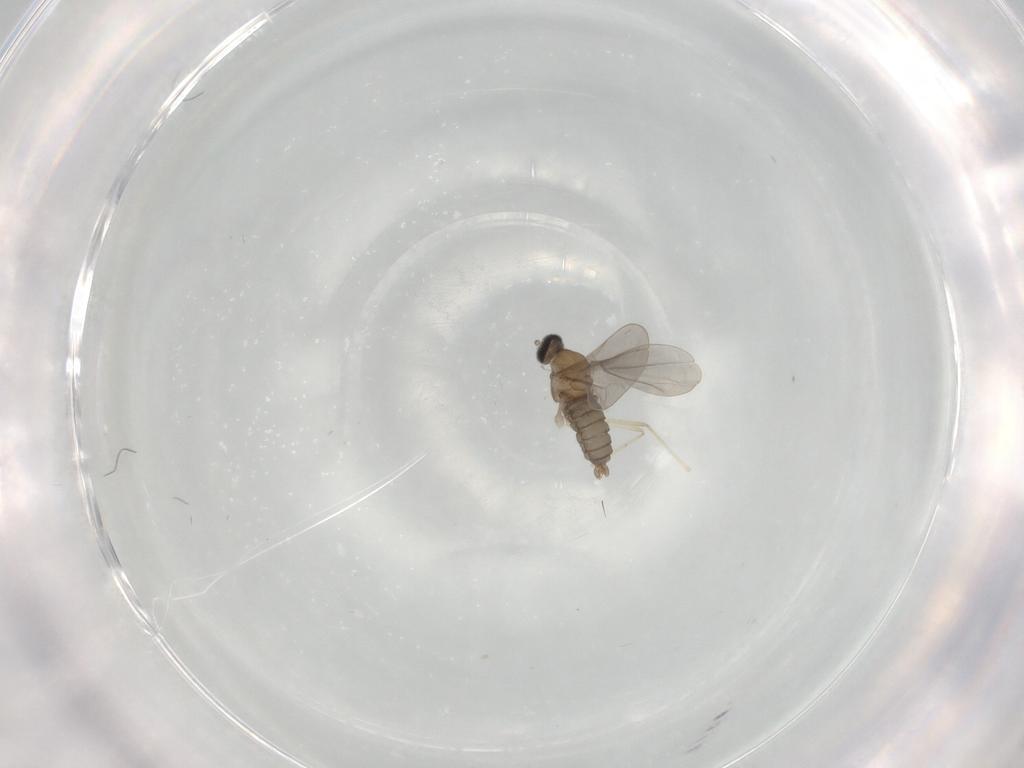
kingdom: Animalia
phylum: Arthropoda
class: Insecta
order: Diptera
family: Cecidomyiidae
